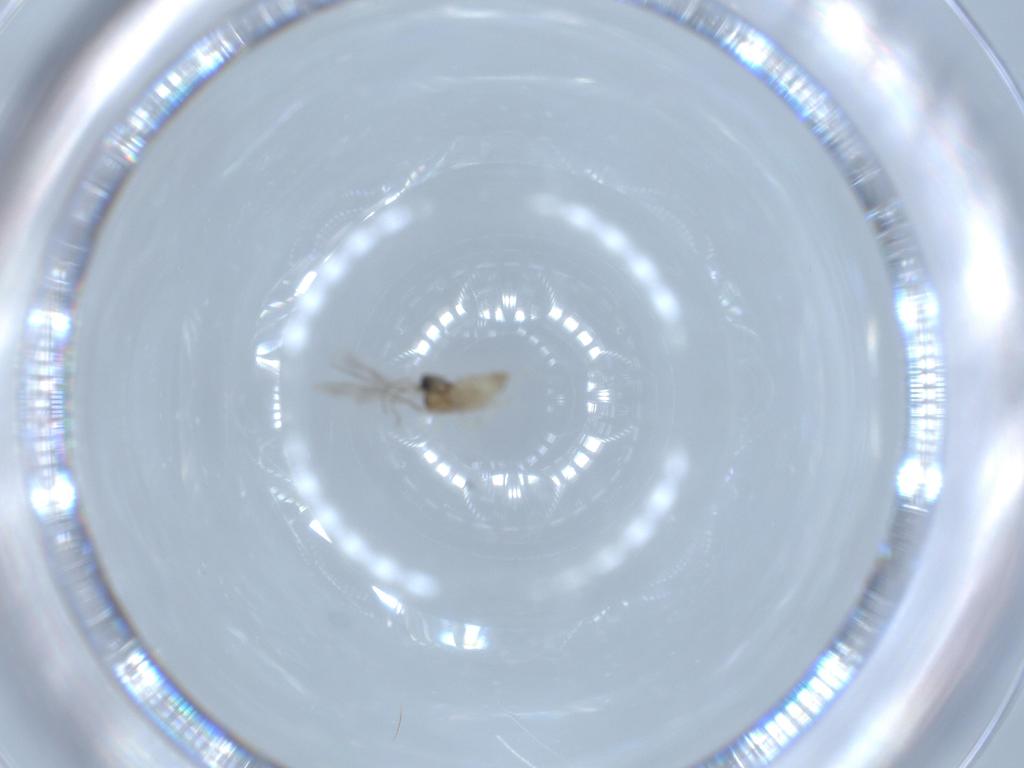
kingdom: Animalia
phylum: Arthropoda
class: Insecta
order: Diptera
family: Cecidomyiidae
